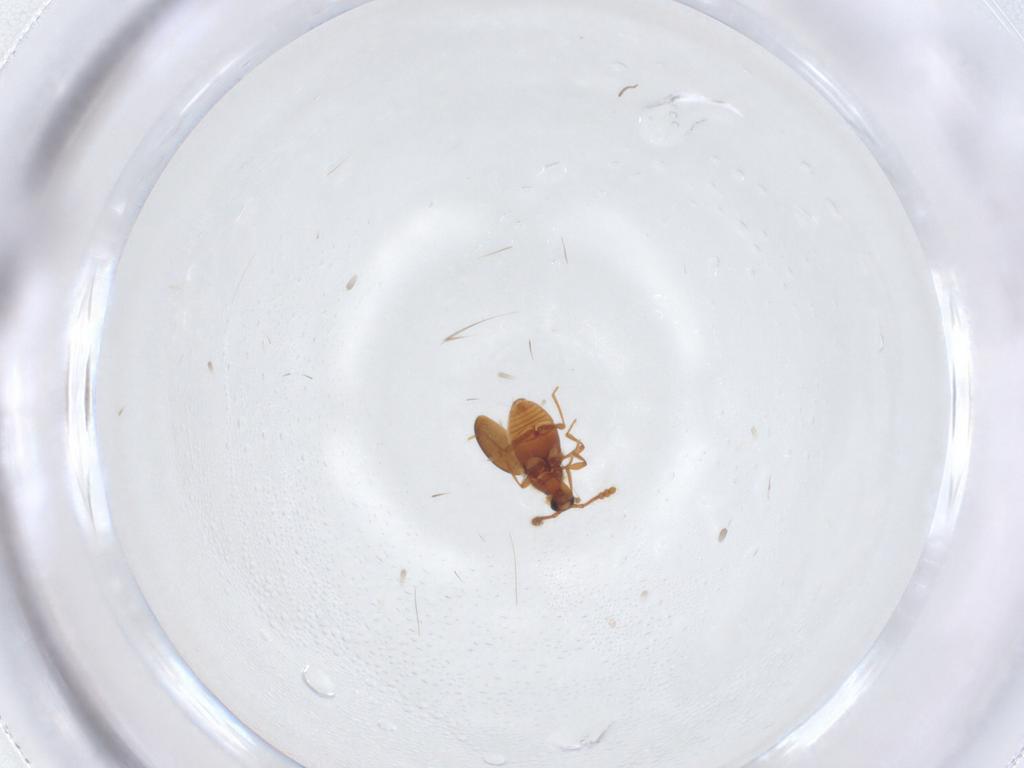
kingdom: Animalia
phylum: Arthropoda
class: Insecta
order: Coleoptera
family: Staphylinidae
